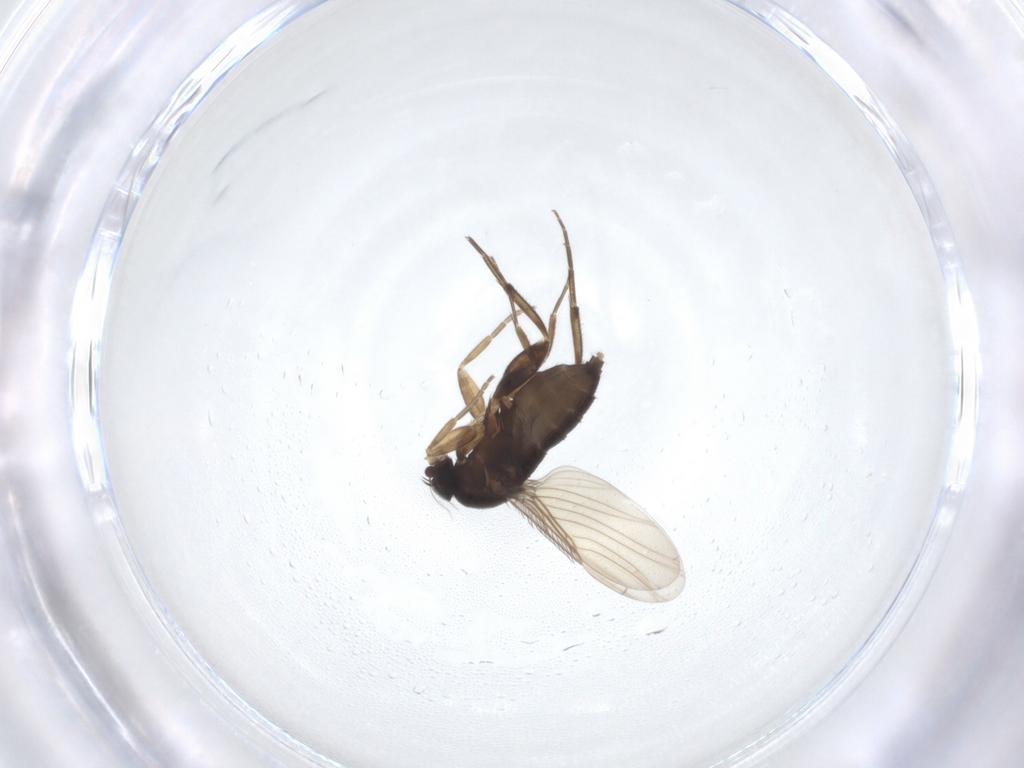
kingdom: Animalia
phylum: Arthropoda
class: Insecta
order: Diptera
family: Phoridae
